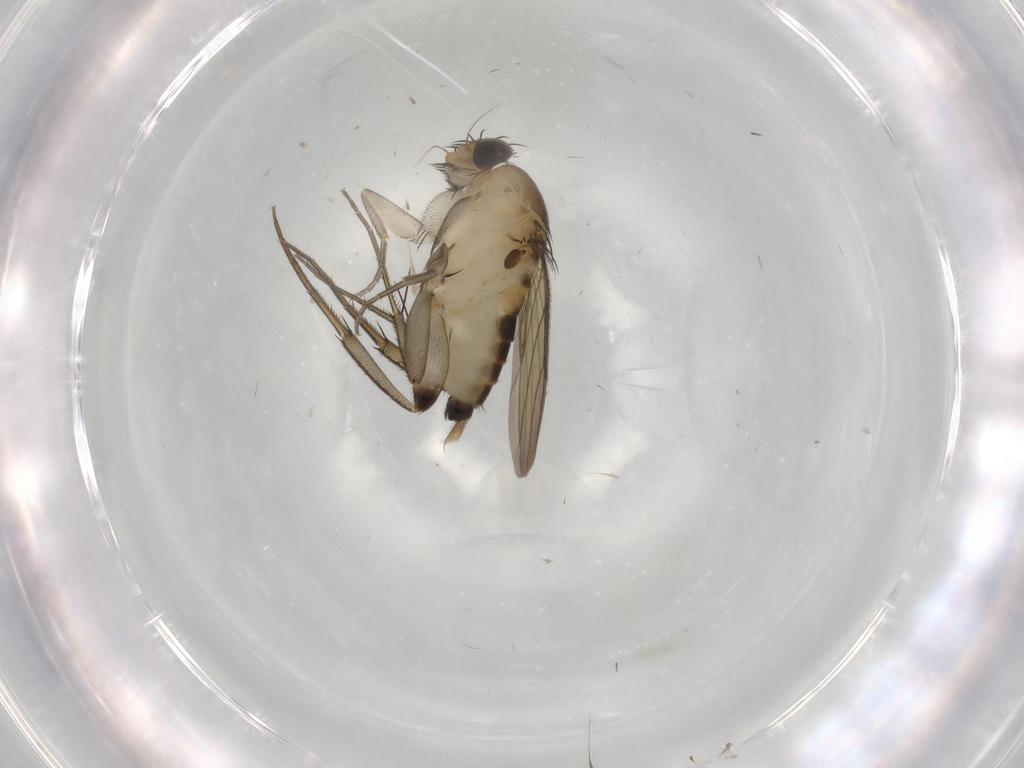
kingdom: Animalia
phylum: Arthropoda
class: Insecta
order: Diptera
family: Phoridae
